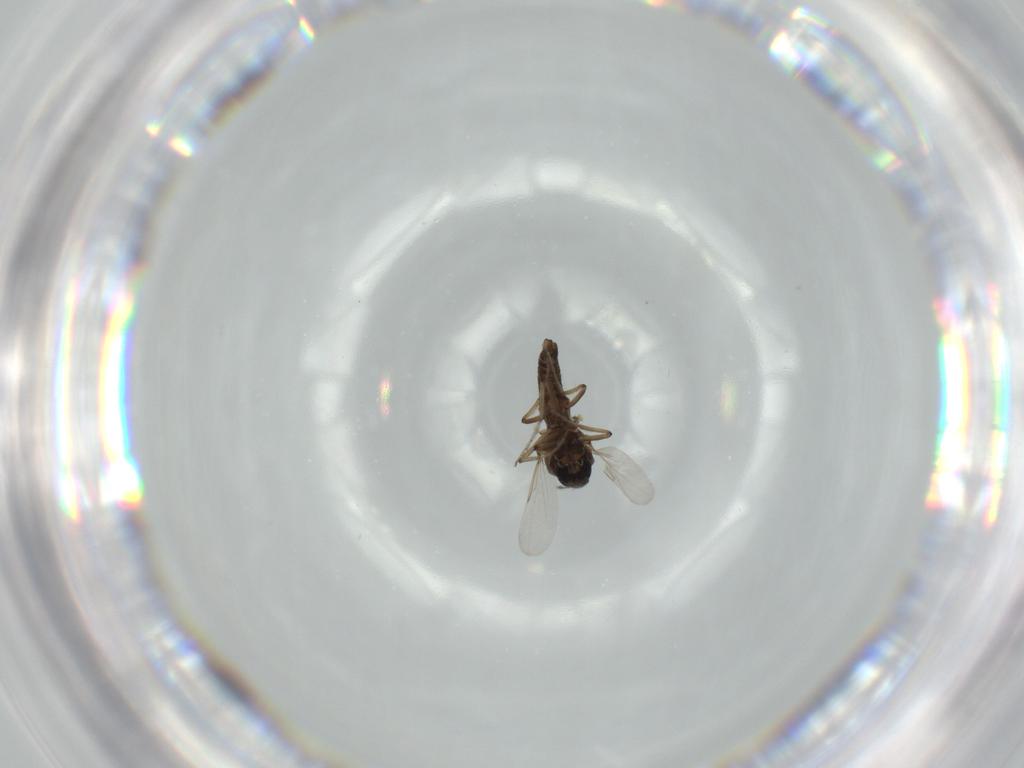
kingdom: Animalia
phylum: Arthropoda
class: Insecta
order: Diptera
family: Ceratopogonidae
